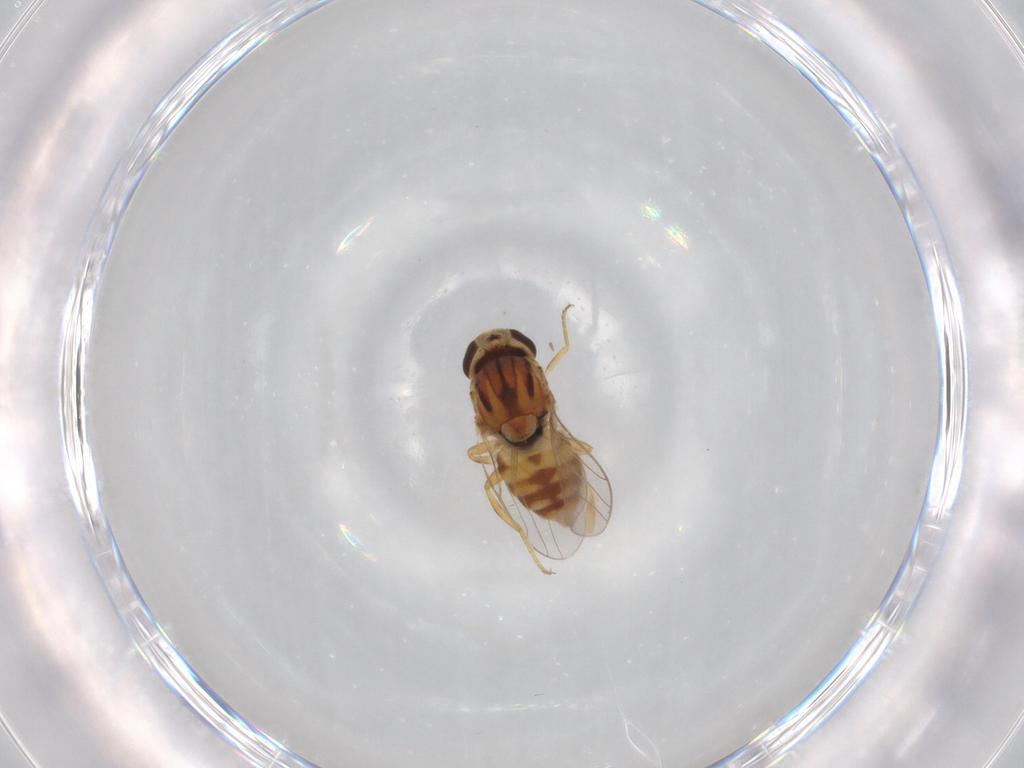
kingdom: Animalia
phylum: Arthropoda
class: Insecta
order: Diptera
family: Chloropidae
